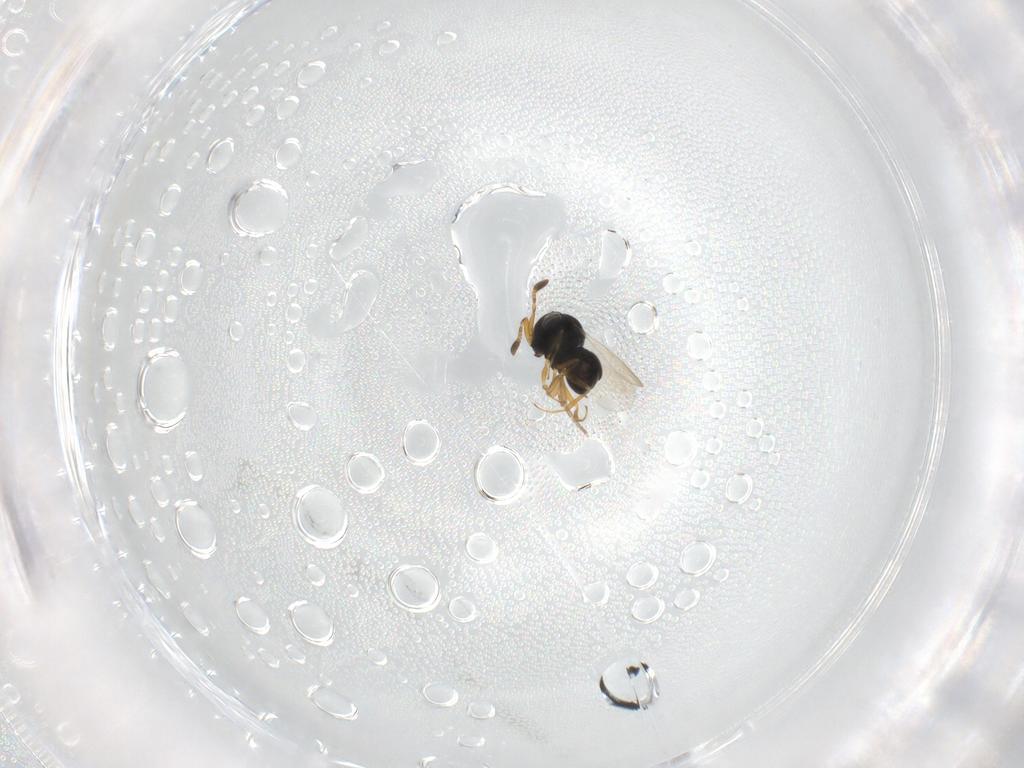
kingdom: Animalia
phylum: Arthropoda
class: Insecta
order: Hymenoptera
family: Scelionidae
